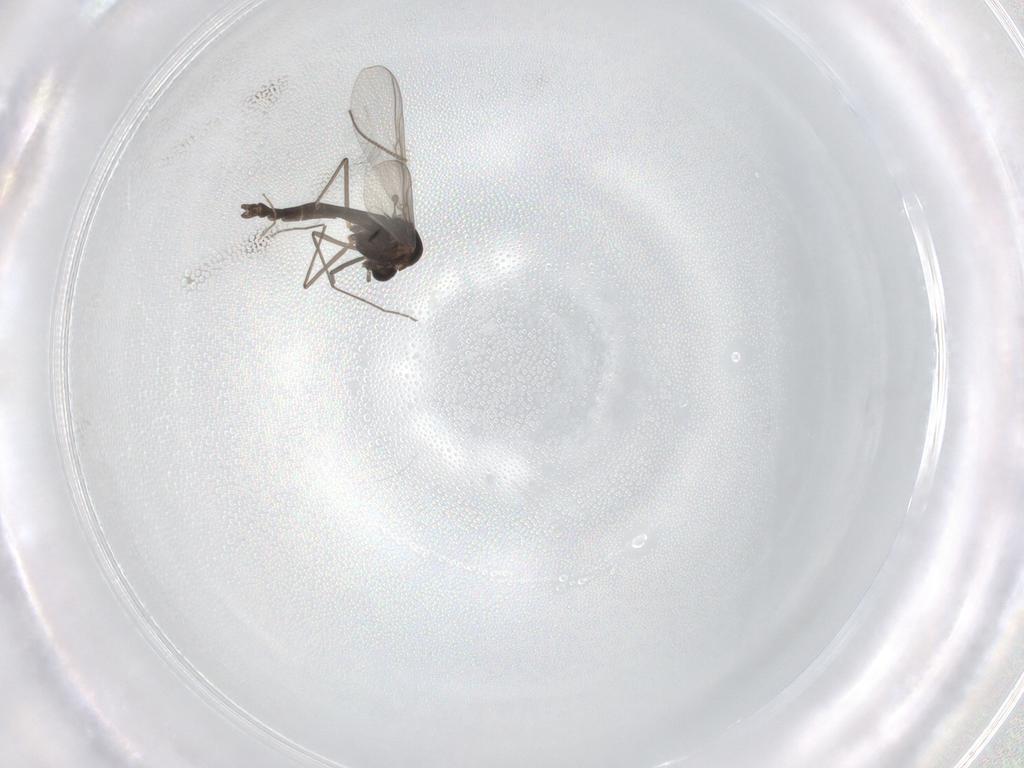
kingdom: Animalia
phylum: Arthropoda
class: Insecta
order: Diptera
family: Chironomidae
